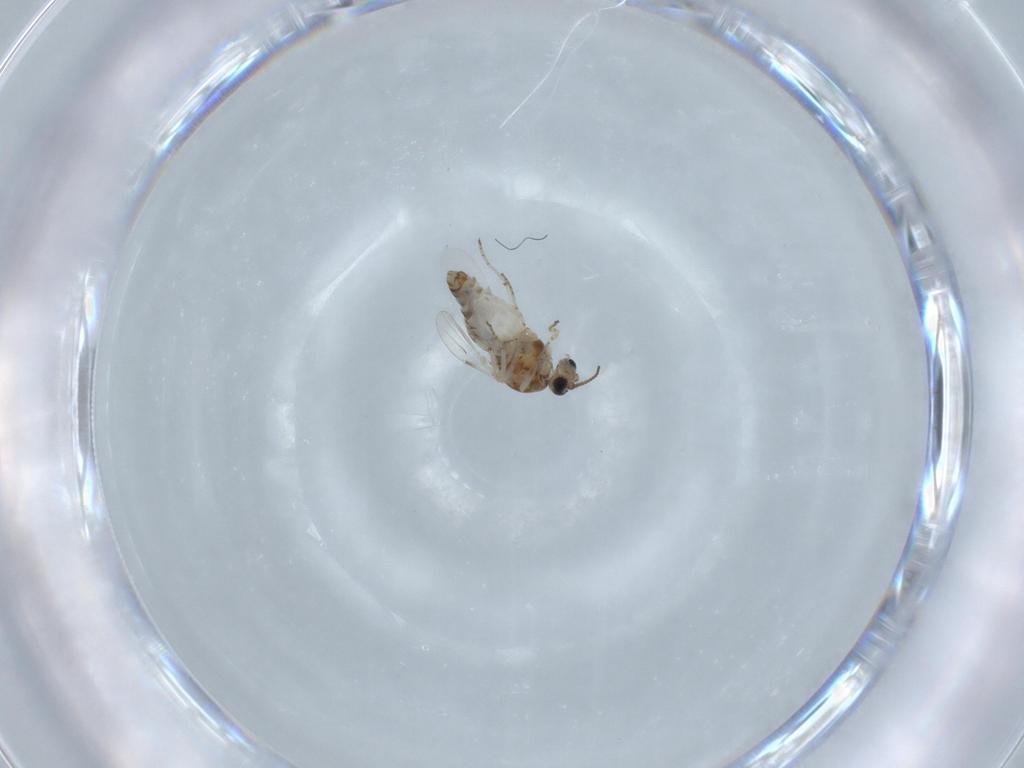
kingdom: Animalia
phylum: Arthropoda
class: Insecta
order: Diptera
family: Ceratopogonidae
